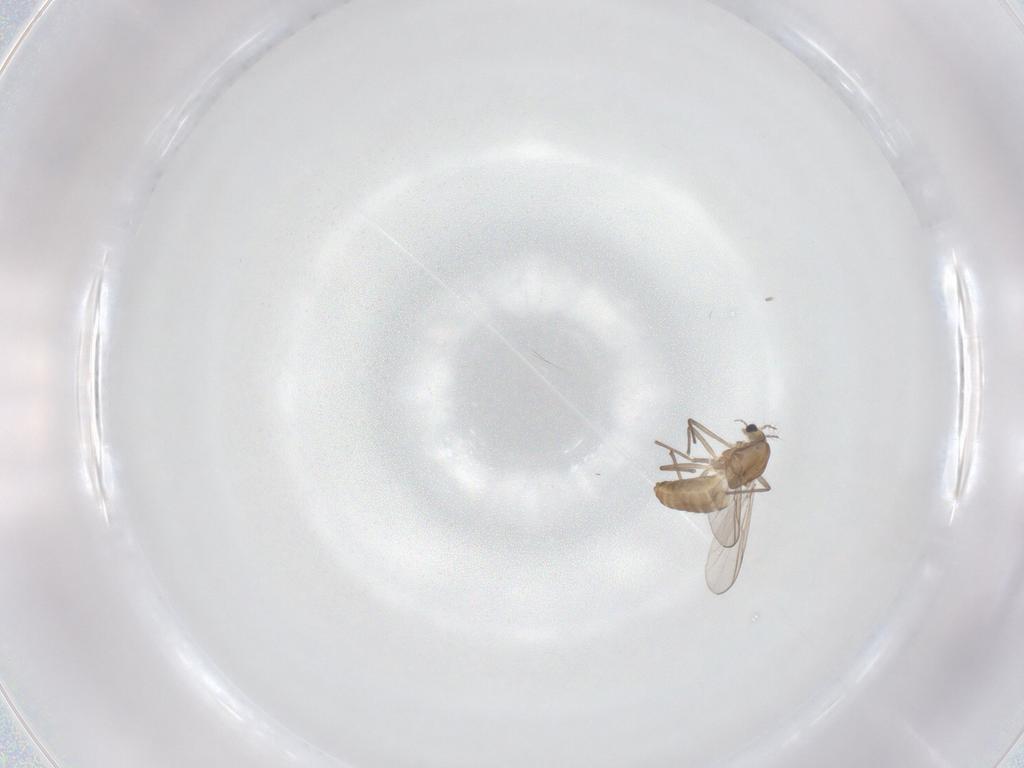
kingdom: Animalia
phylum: Arthropoda
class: Insecta
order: Diptera
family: Chironomidae
